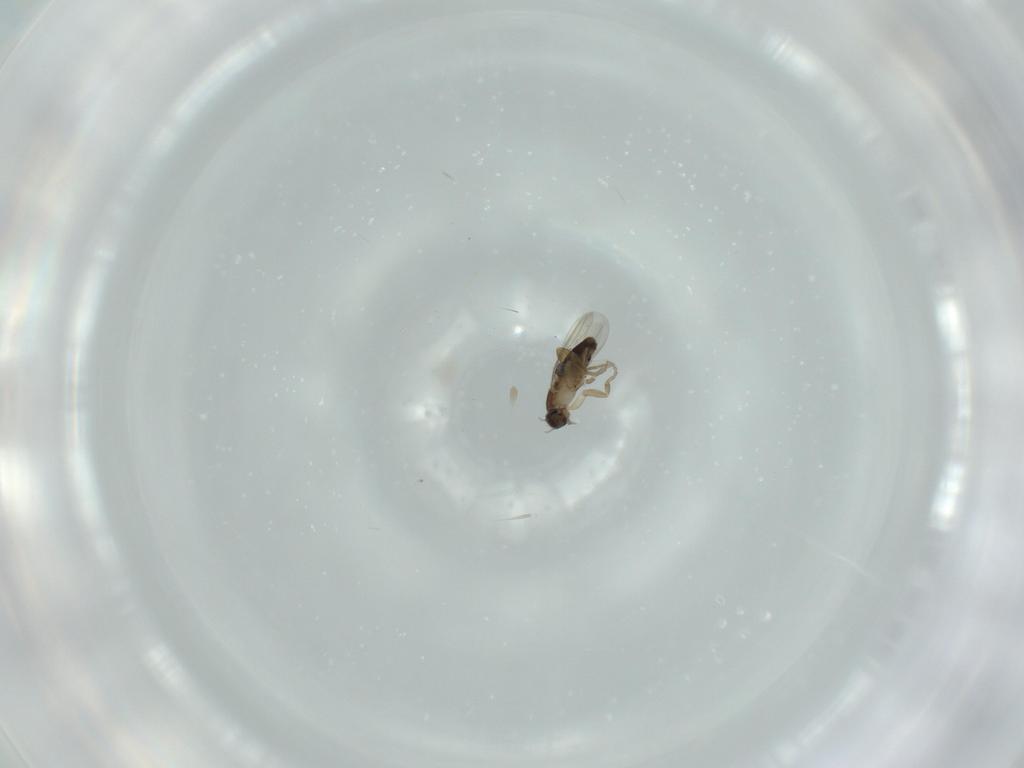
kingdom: Animalia
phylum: Arthropoda
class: Insecta
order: Diptera
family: Phoridae
